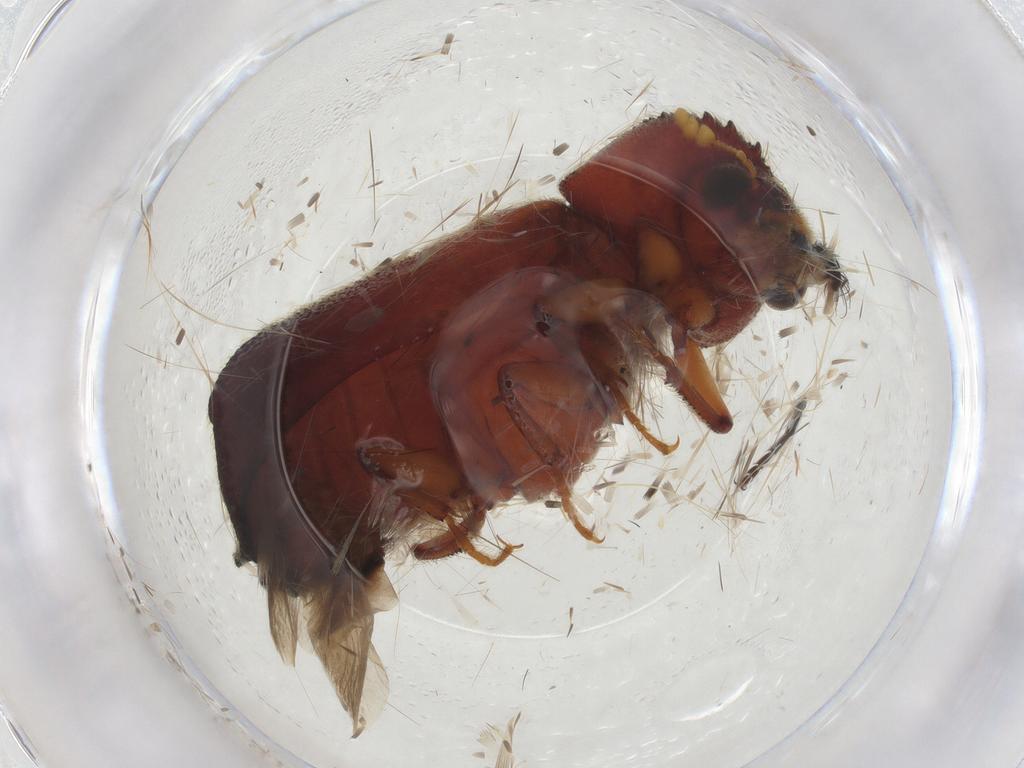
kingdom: Animalia
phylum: Arthropoda
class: Insecta
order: Coleoptera
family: Bostrichidae
